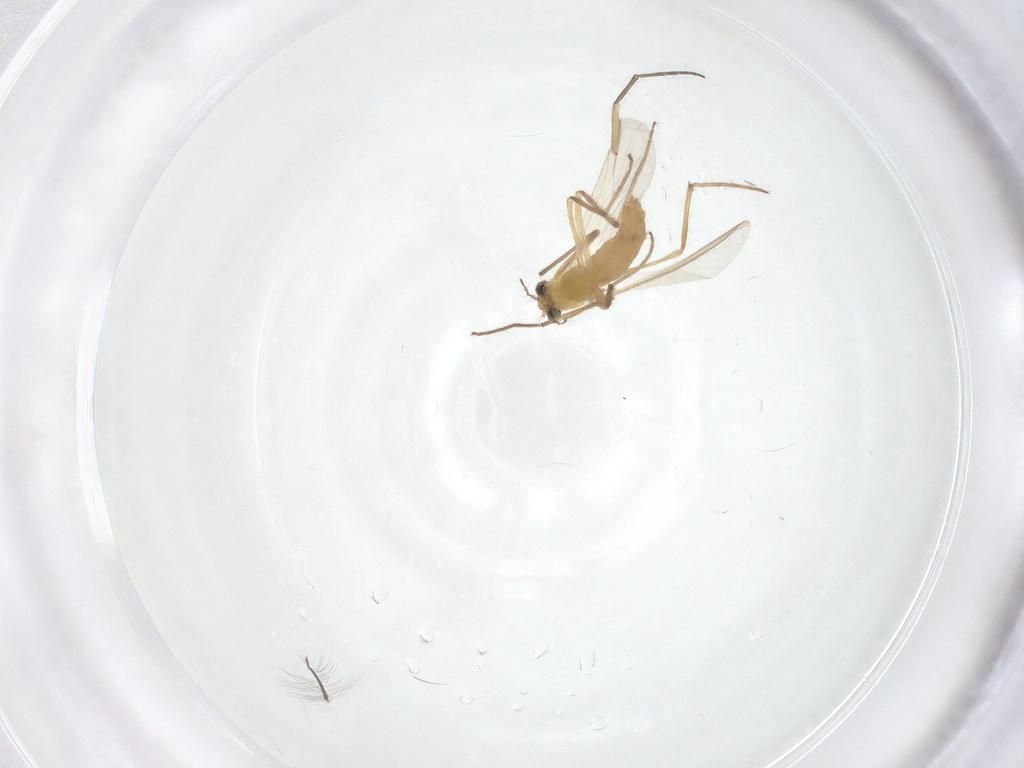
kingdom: Animalia
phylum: Arthropoda
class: Insecta
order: Diptera
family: Chironomidae
